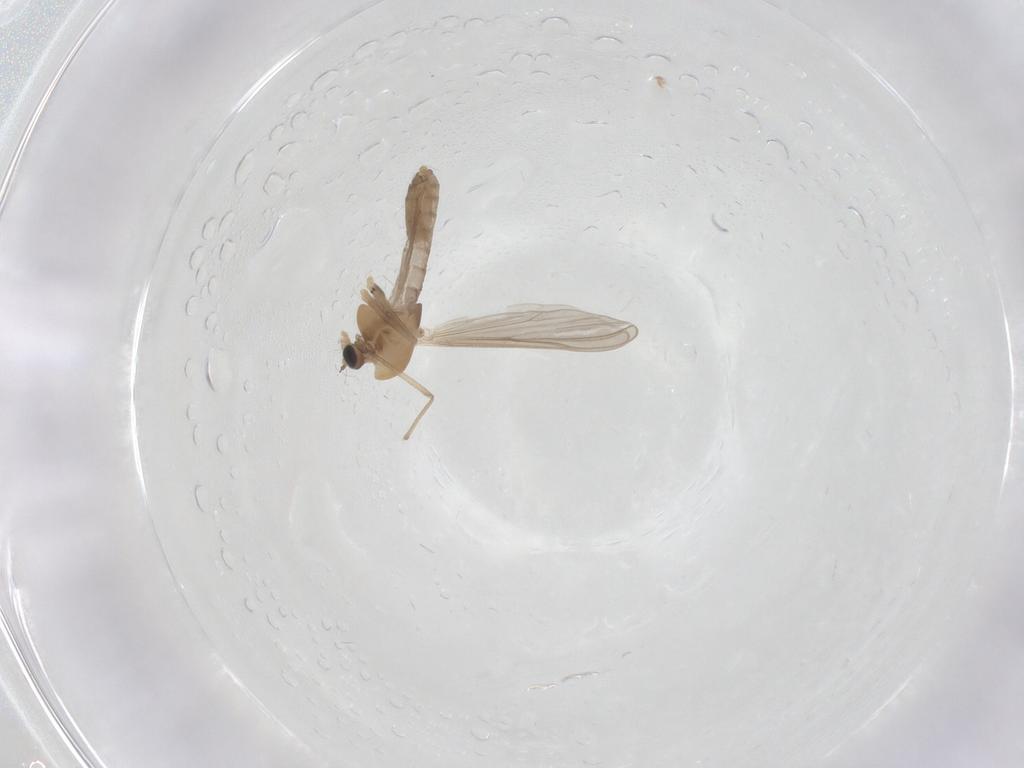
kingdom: Animalia
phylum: Arthropoda
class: Insecta
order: Diptera
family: Chironomidae
